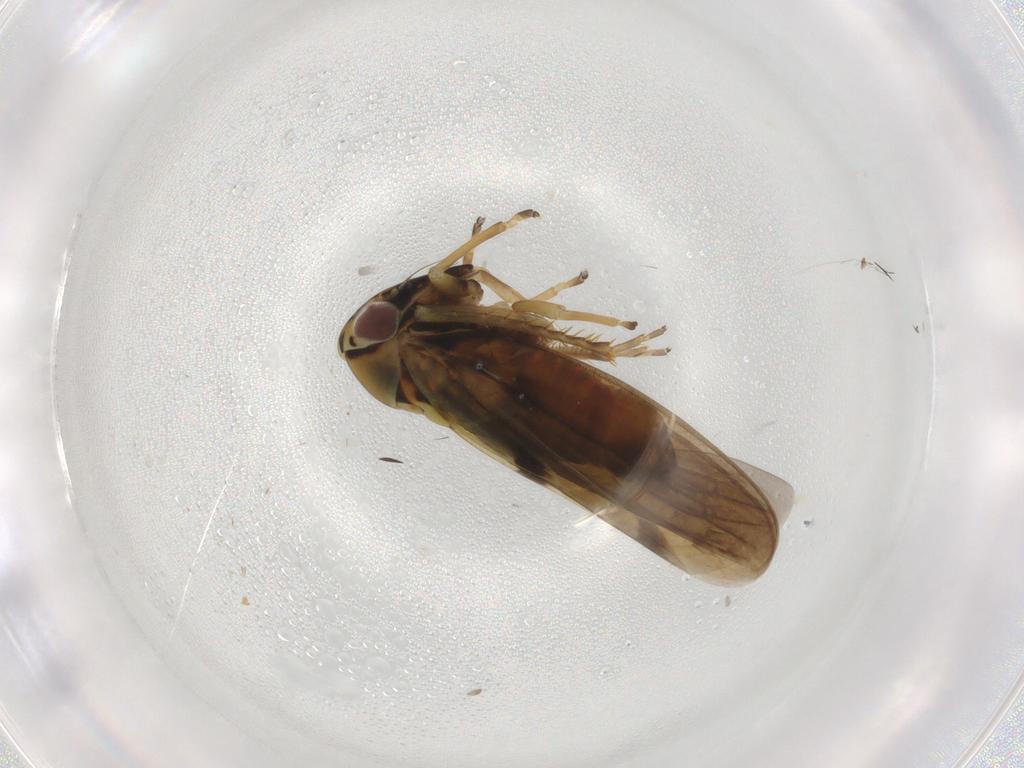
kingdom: Animalia
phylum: Arthropoda
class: Insecta
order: Hemiptera
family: Cicadellidae
